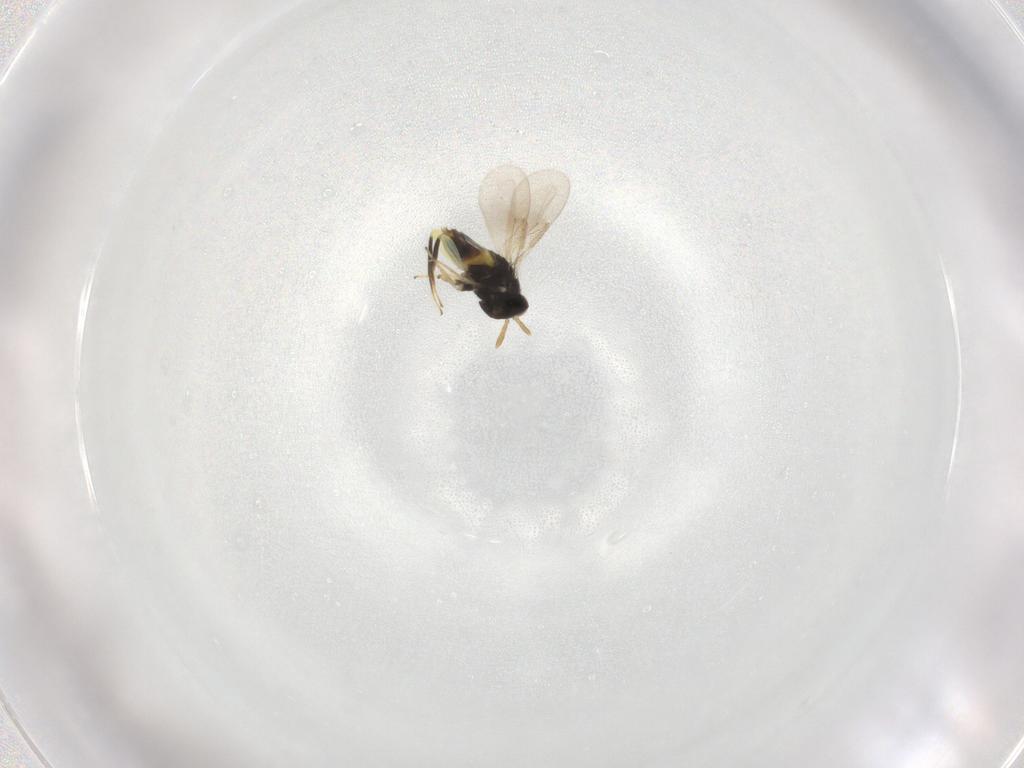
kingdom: Animalia
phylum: Arthropoda
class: Insecta
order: Hymenoptera
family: Aphelinidae
